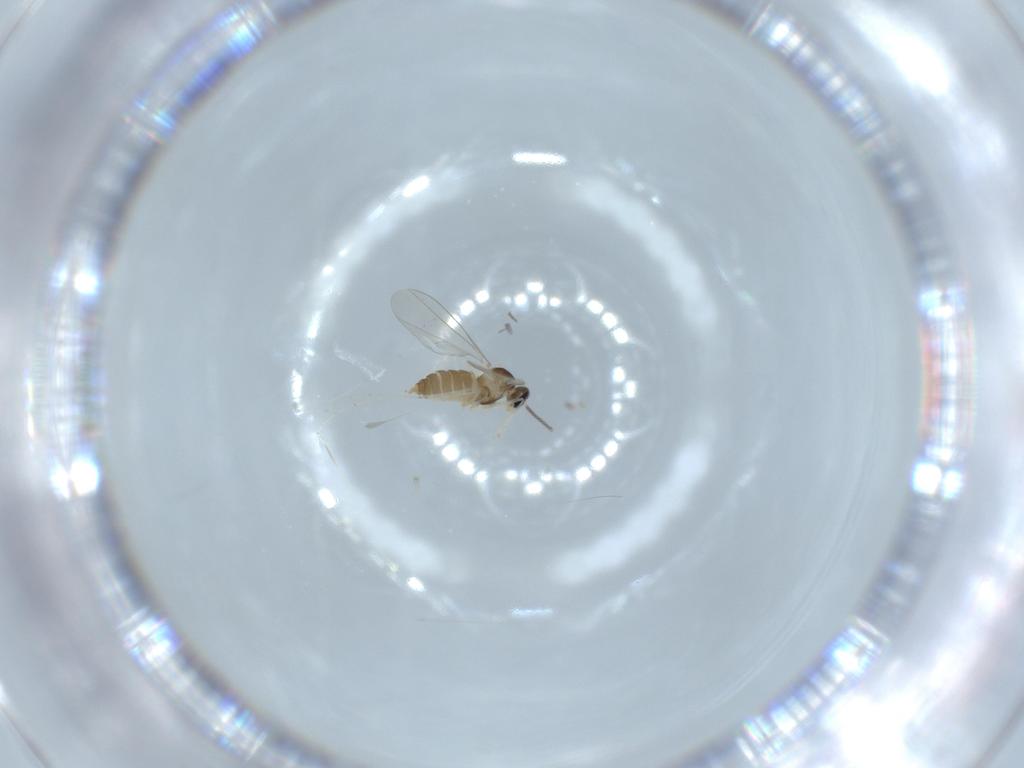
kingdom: Animalia
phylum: Arthropoda
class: Insecta
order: Diptera
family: Cecidomyiidae
